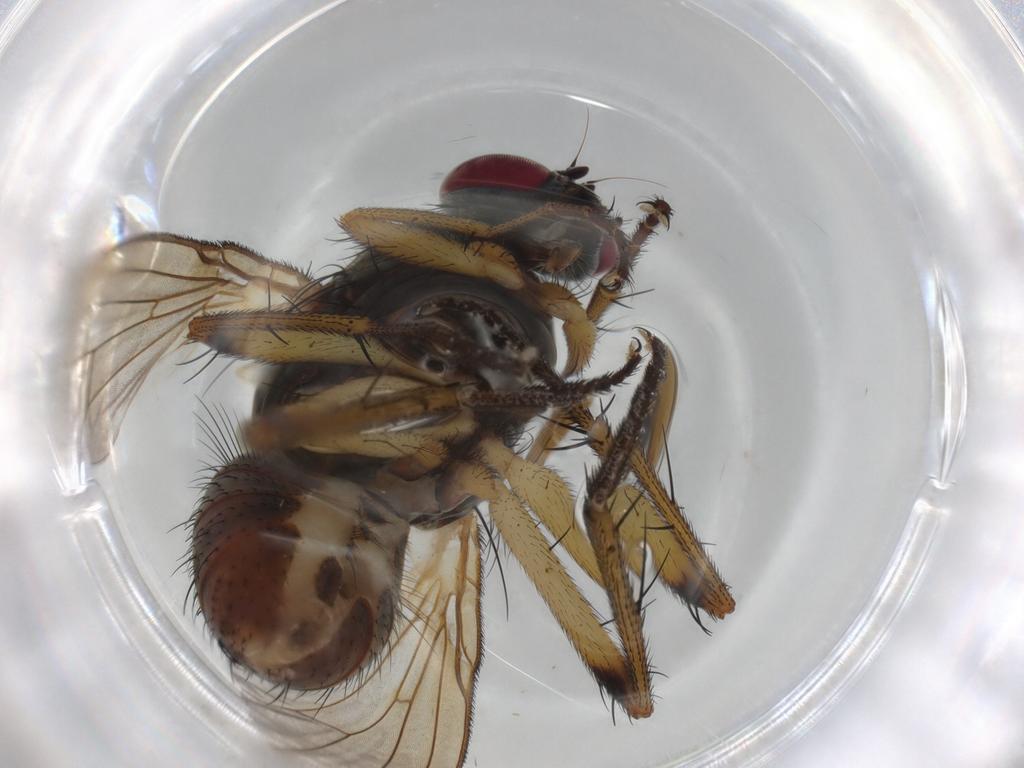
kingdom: Animalia
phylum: Arthropoda
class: Insecta
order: Diptera
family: Muscidae
